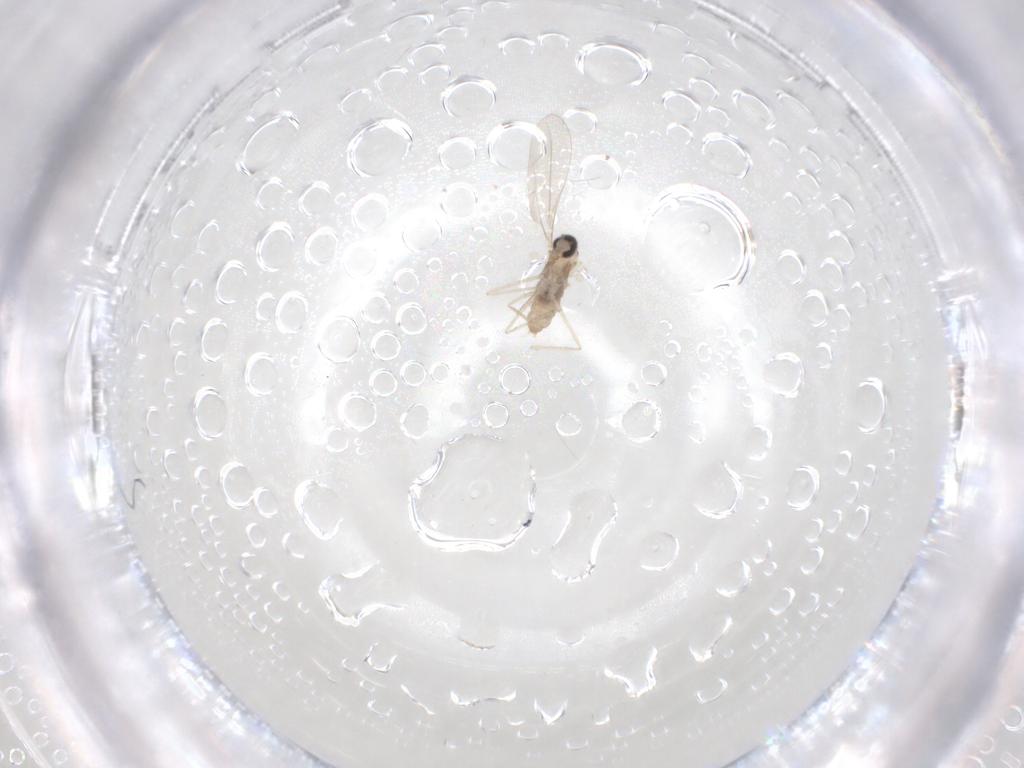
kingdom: Animalia
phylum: Arthropoda
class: Insecta
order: Diptera
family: Cecidomyiidae
